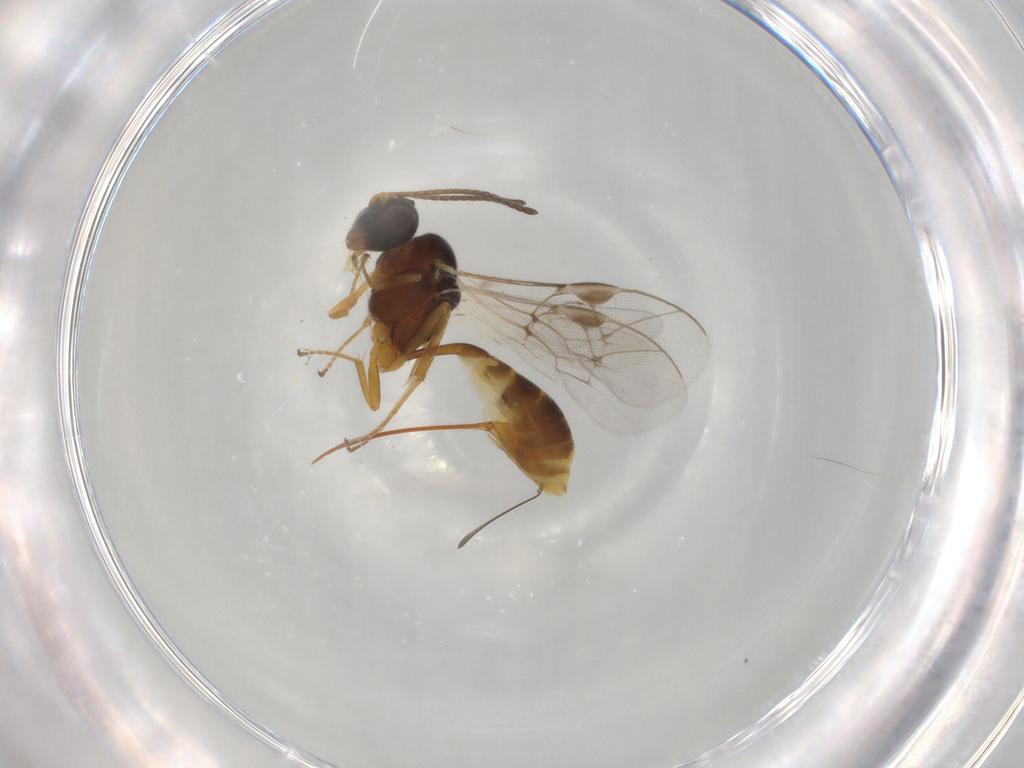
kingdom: Animalia
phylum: Arthropoda
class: Insecta
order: Hymenoptera
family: Ichneumonidae
